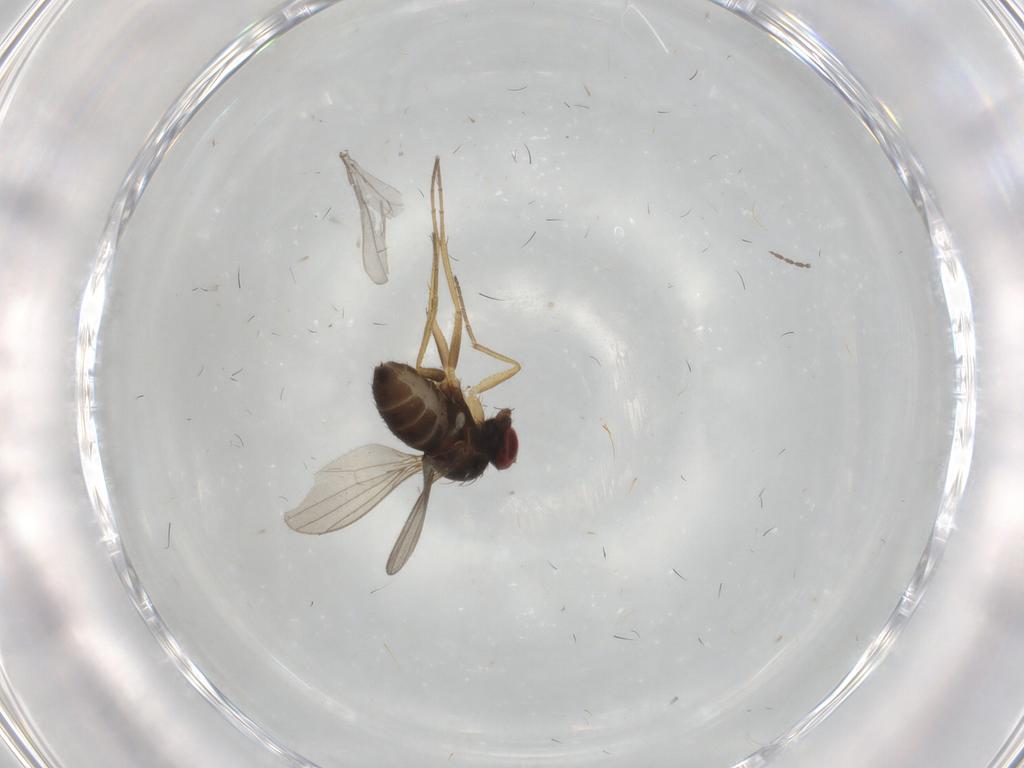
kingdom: Animalia
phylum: Arthropoda
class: Insecta
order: Diptera
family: Dolichopodidae
